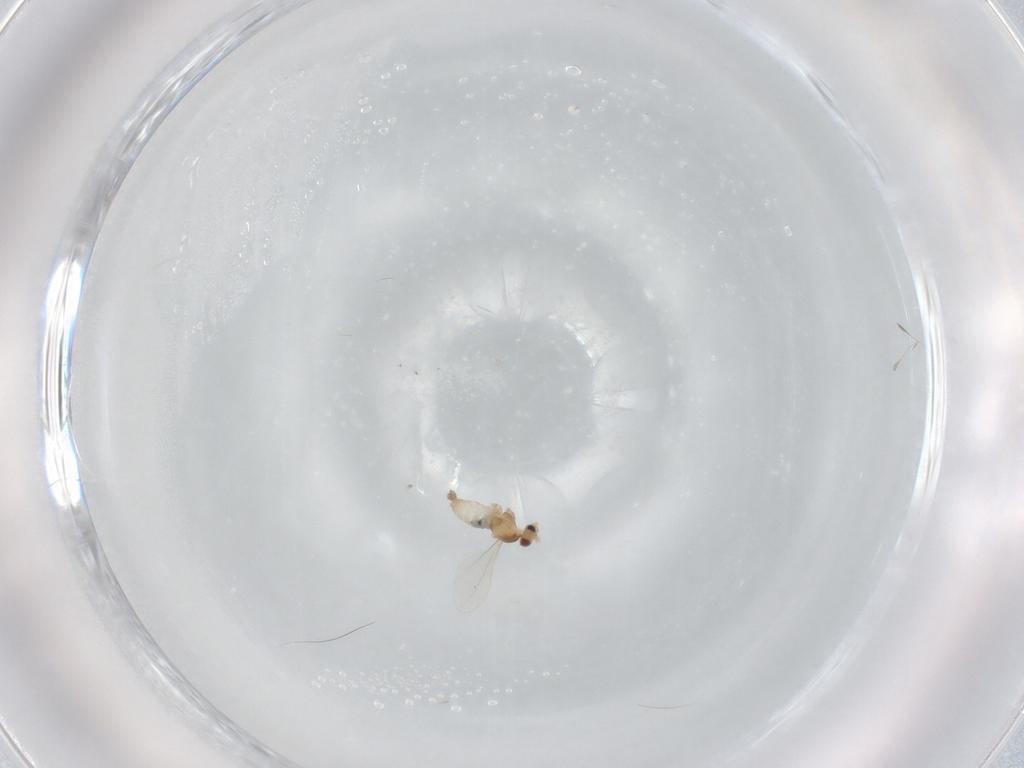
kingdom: Animalia
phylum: Arthropoda
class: Insecta
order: Diptera
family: Cecidomyiidae
